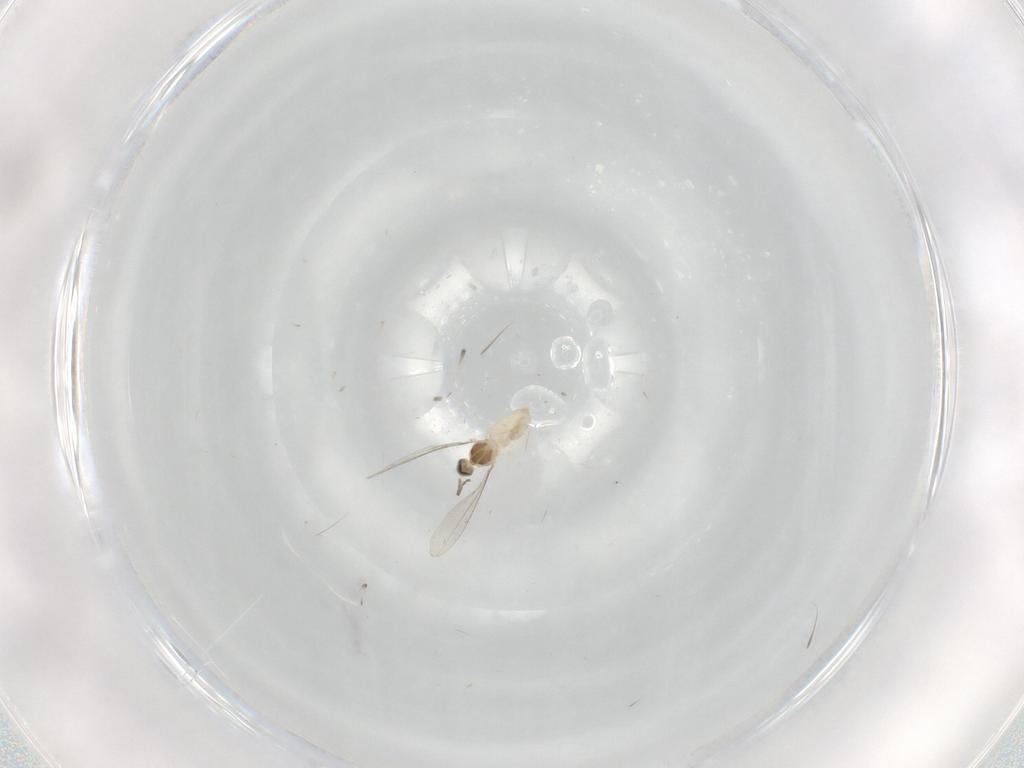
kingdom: Animalia
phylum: Arthropoda
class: Insecta
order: Diptera
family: Cecidomyiidae
